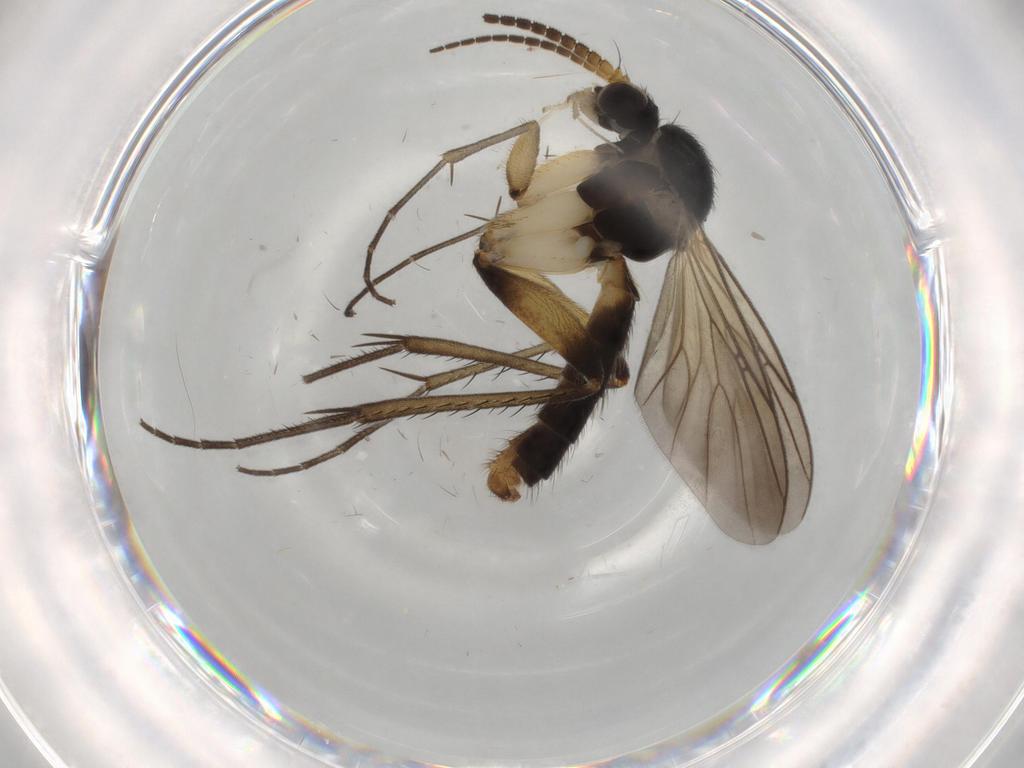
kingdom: Animalia
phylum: Arthropoda
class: Insecta
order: Diptera
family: Mycetophilidae
